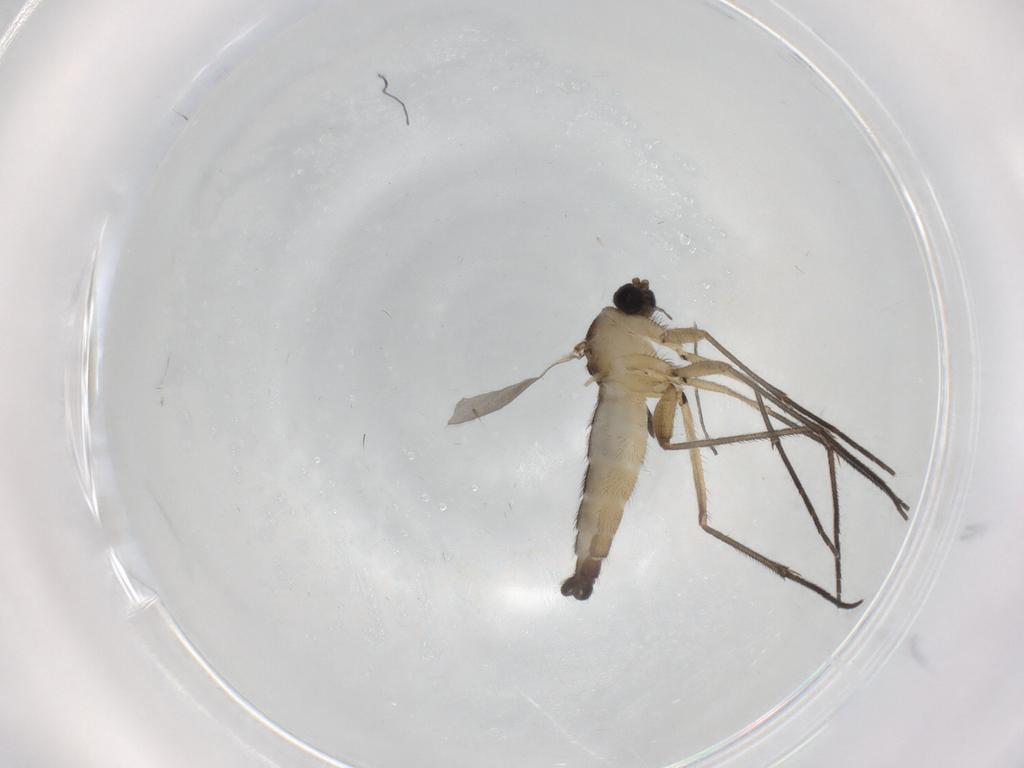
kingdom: Animalia
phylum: Arthropoda
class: Insecta
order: Diptera
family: Sciaridae
